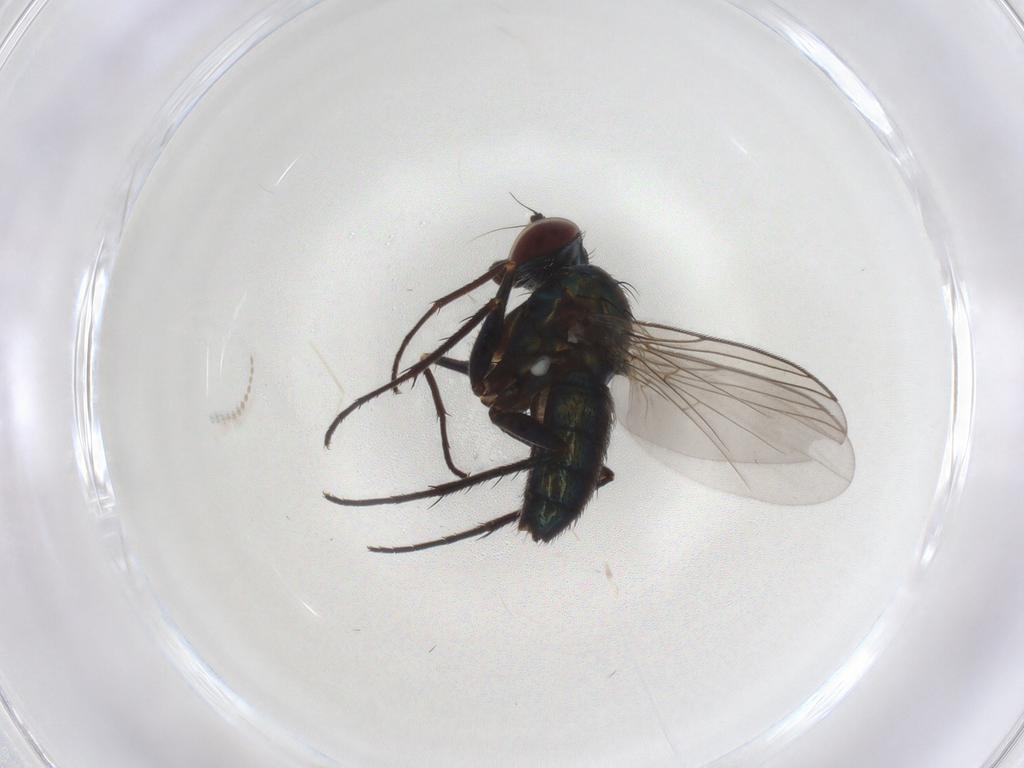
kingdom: Animalia
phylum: Arthropoda
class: Insecta
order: Diptera
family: Dolichopodidae
